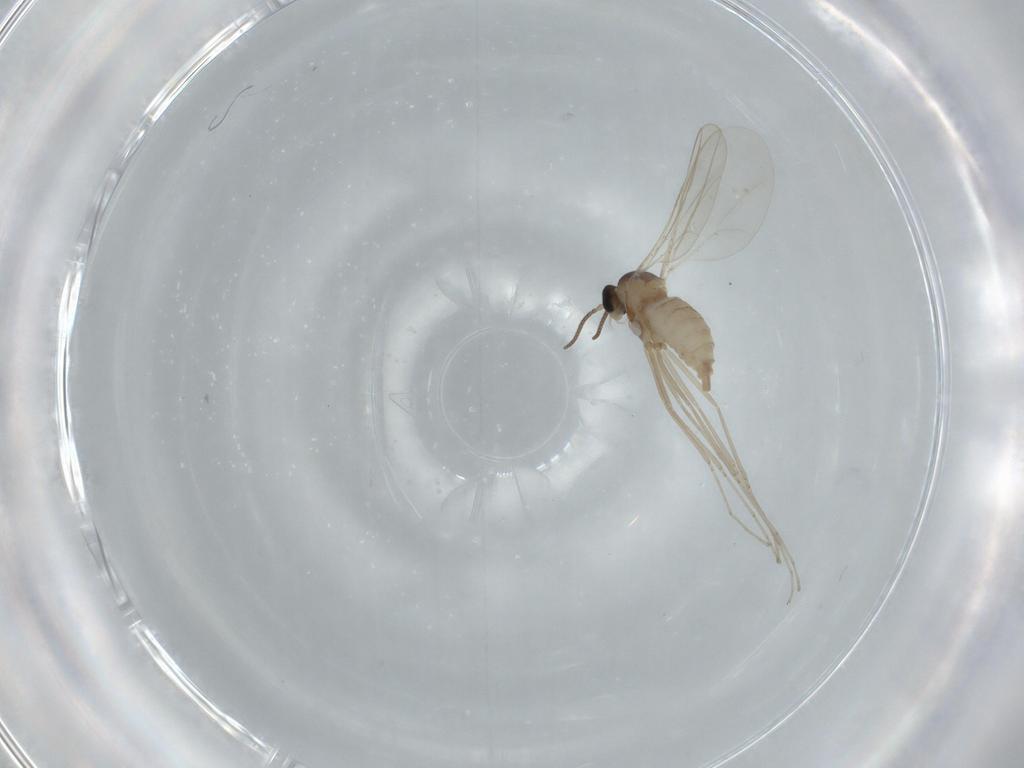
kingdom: Animalia
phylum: Arthropoda
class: Insecta
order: Diptera
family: Cecidomyiidae
